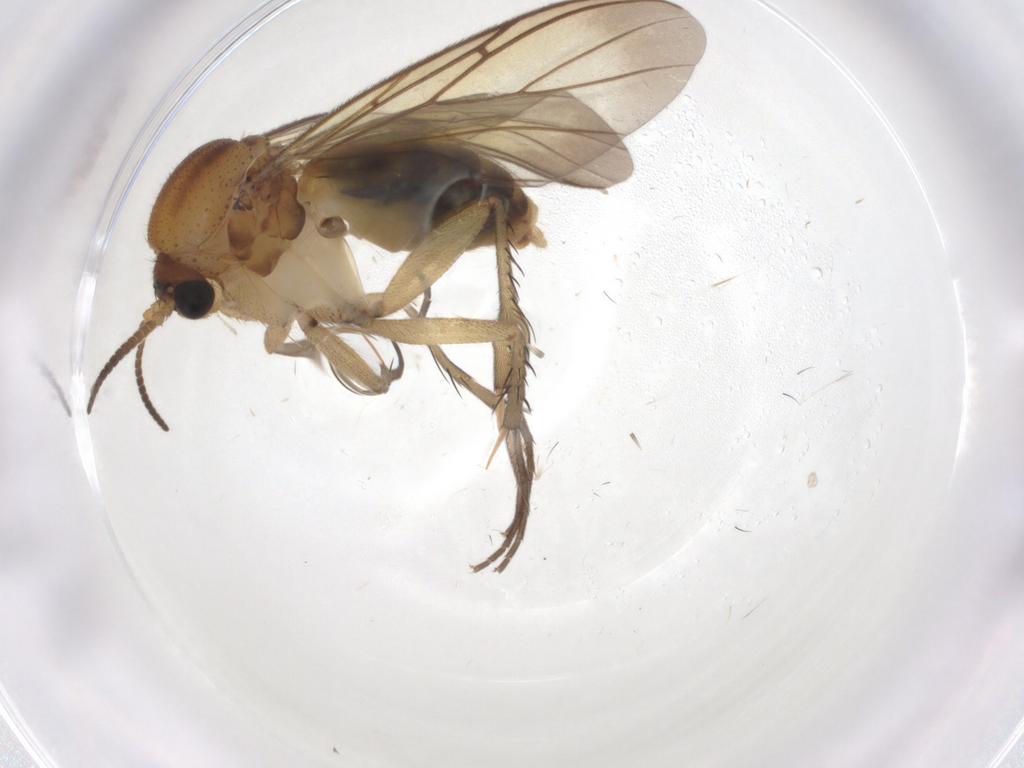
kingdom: Animalia
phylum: Arthropoda
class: Insecta
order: Diptera
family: Mycetophilidae
